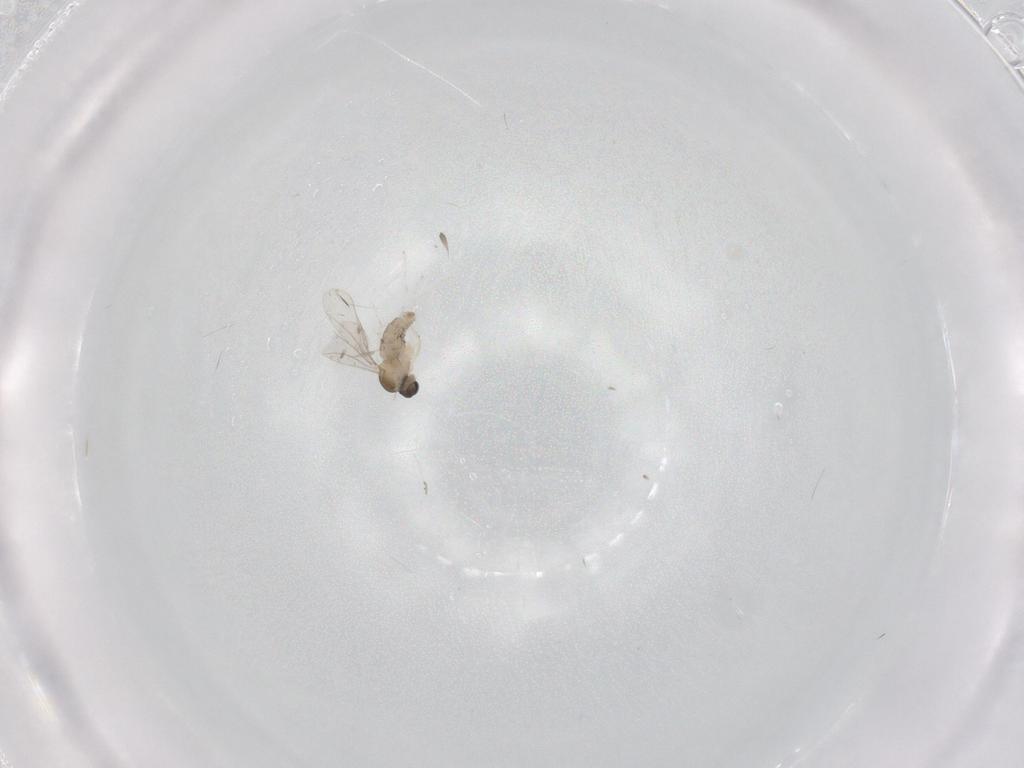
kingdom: Animalia
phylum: Arthropoda
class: Insecta
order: Diptera
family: Cecidomyiidae
